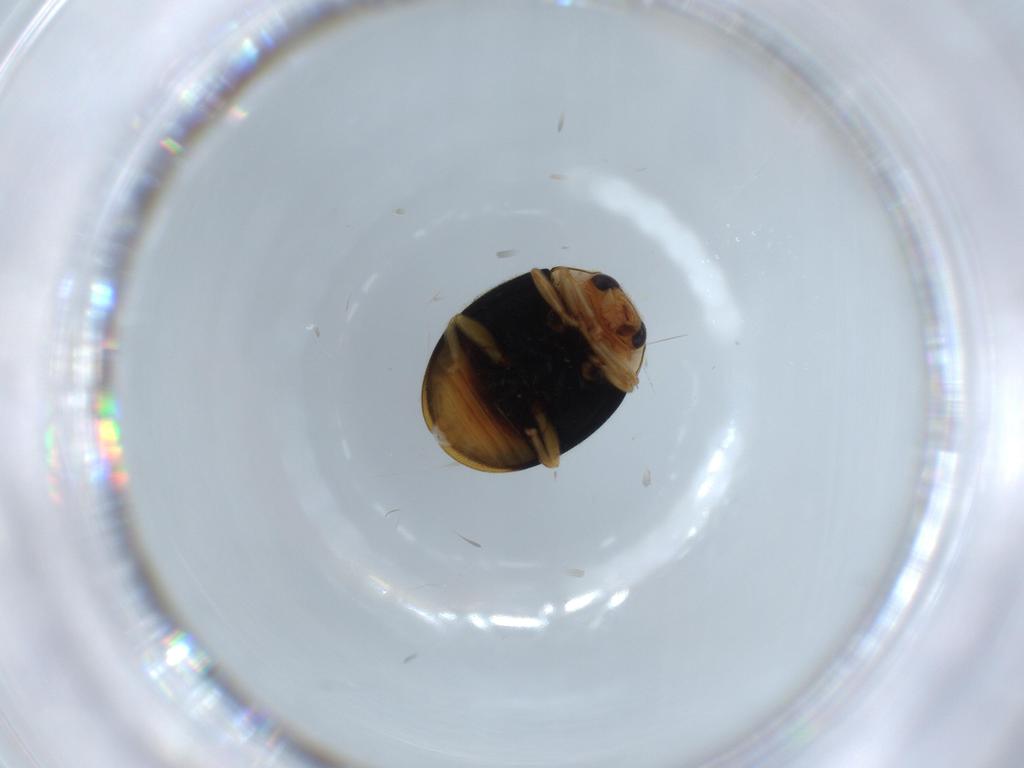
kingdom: Animalia
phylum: Arthropoda
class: Insecta
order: Coleoptera
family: Coccinellidae
